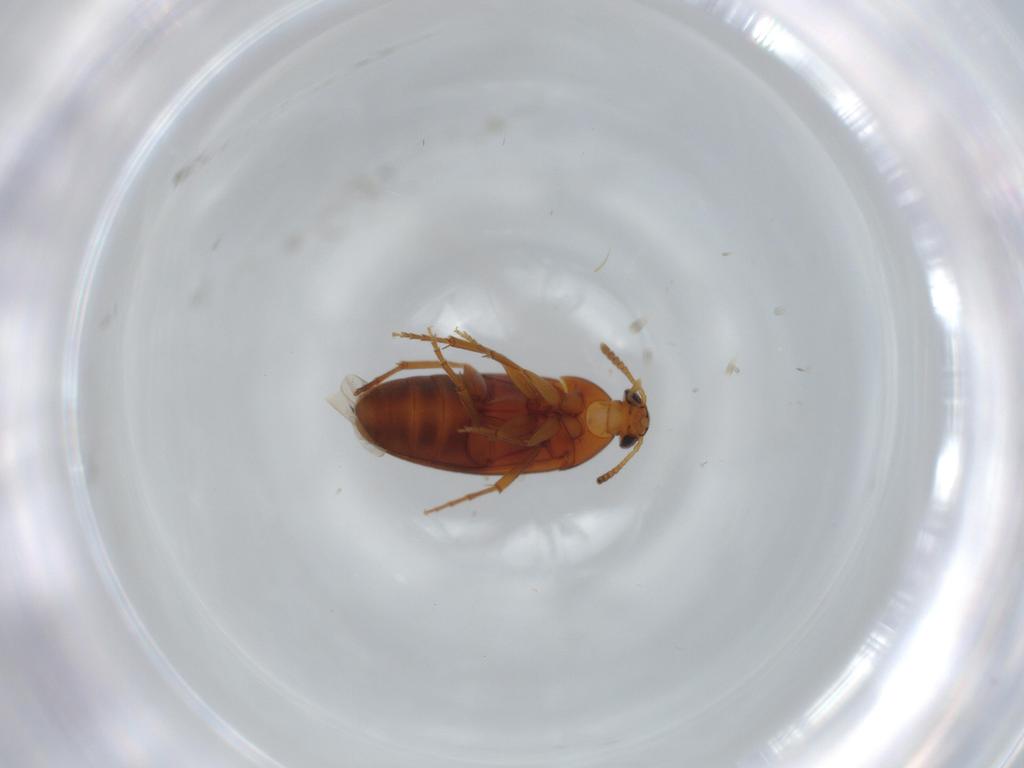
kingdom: Animalia
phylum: Arthropoda
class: Insecta
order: Coleoptera
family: Scraptiidae
